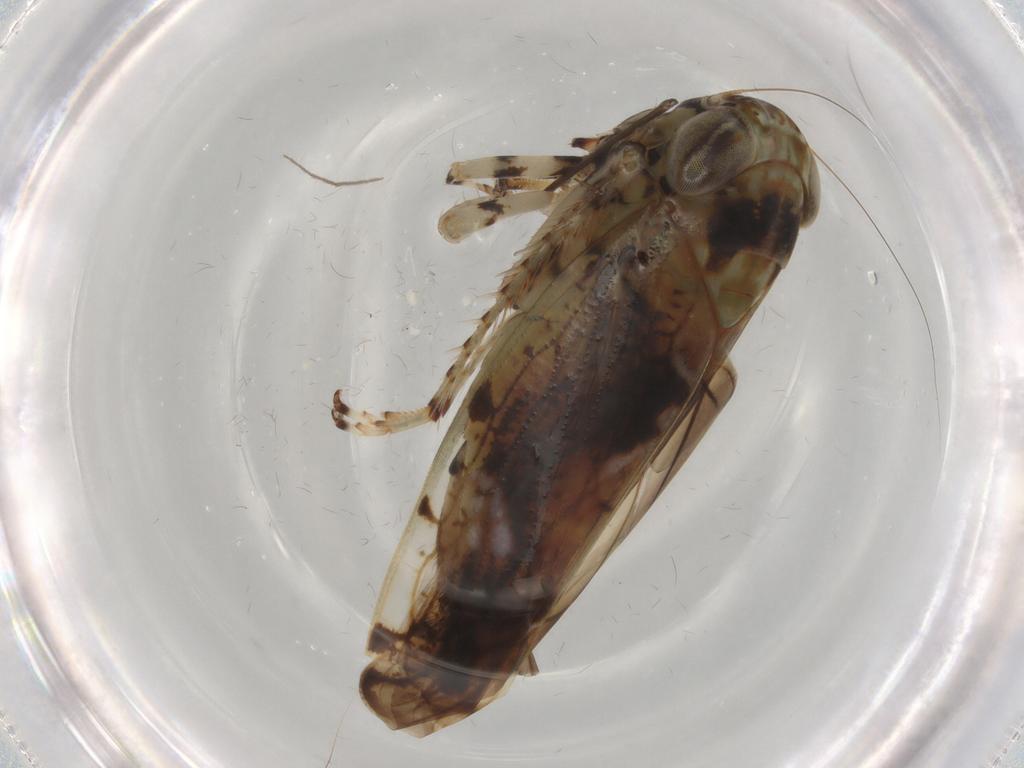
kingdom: Animalia
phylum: Arthropoda
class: Insecta
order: Hemiptera
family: Cicadellidae
